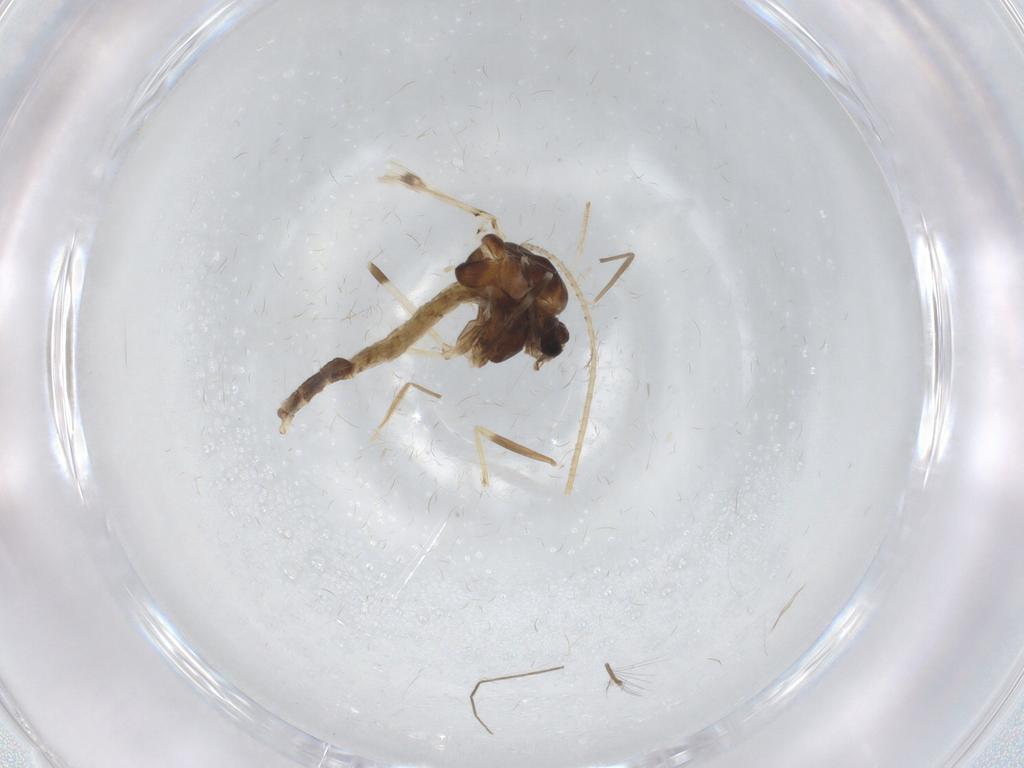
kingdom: Animalia
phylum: Arthropoda
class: Insecta
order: Diptera
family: Chironomidae
